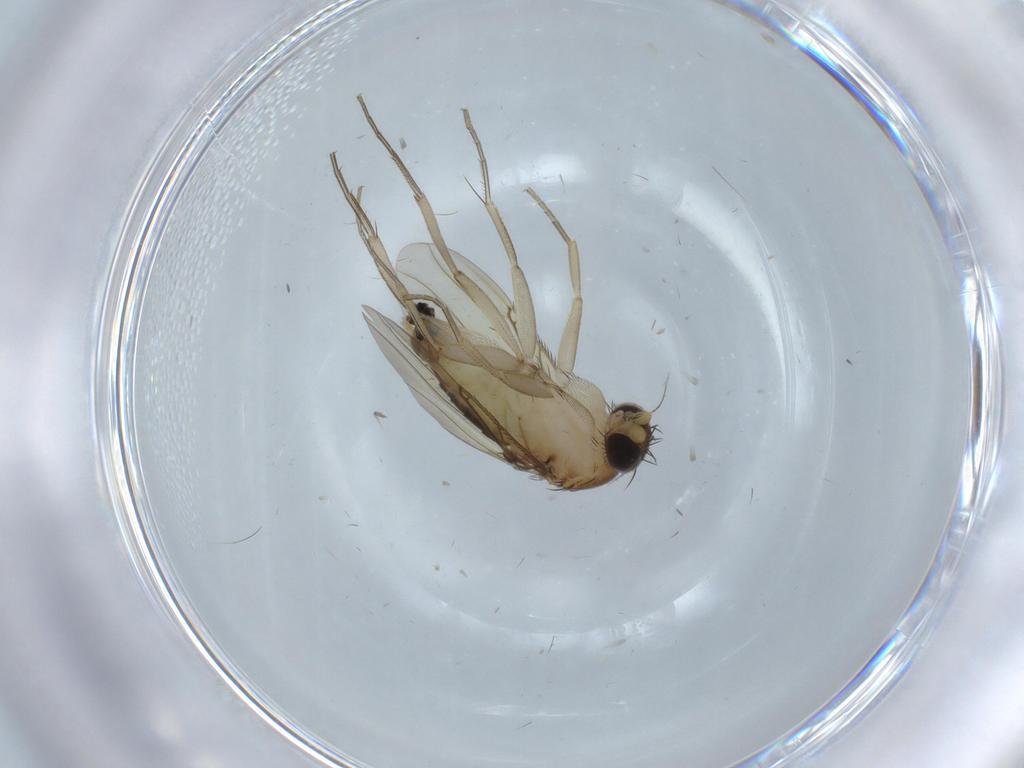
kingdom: Animalia
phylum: Arthropoda
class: Insecta
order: Diptera
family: Phoridae
